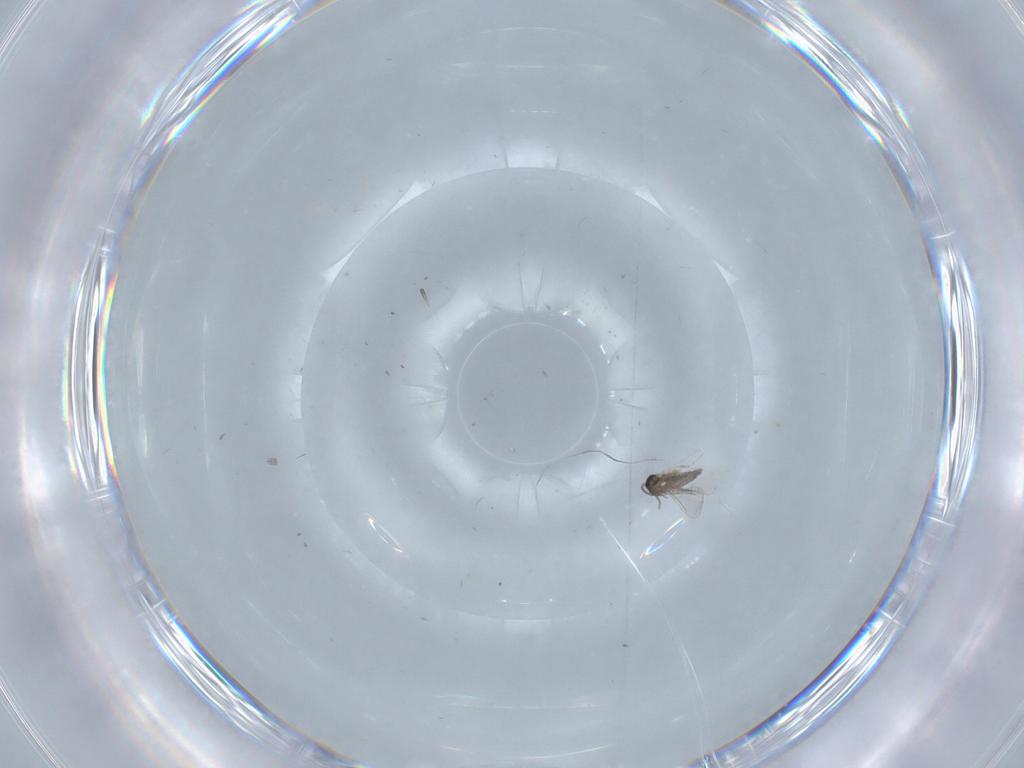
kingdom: Animalia
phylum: Arthropoda
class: Insecta
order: Diptera
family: Cecidomyiidae
